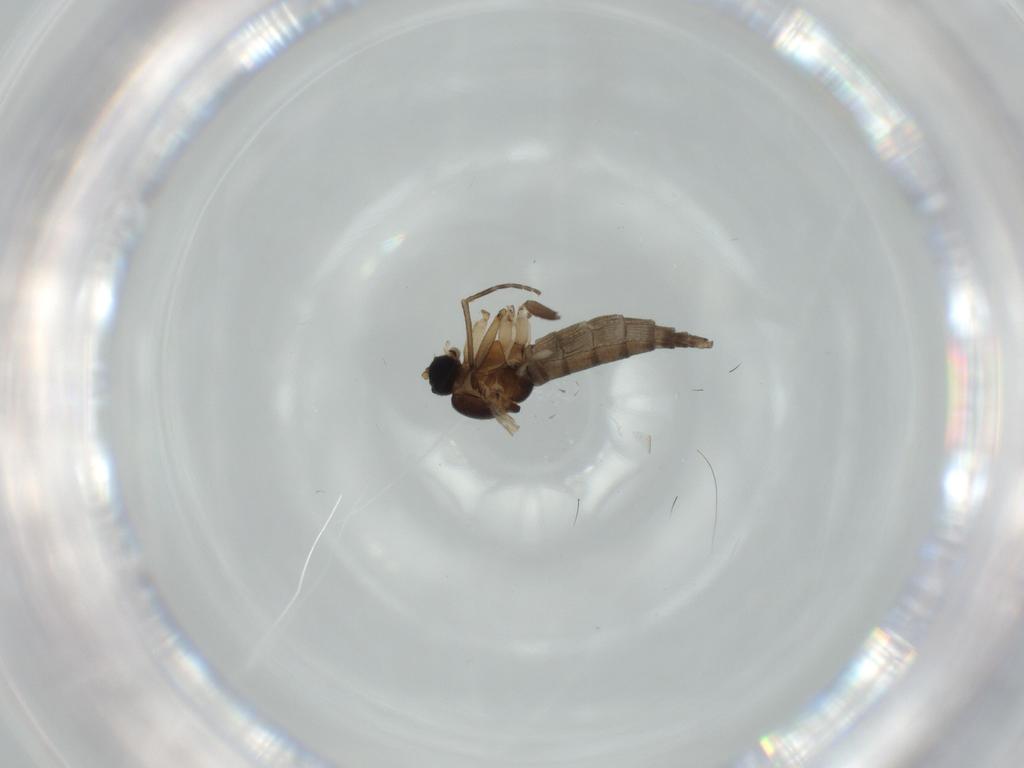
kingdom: Animalia
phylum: Arthropoda
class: Insecta
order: Diptera
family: Sciaridae
